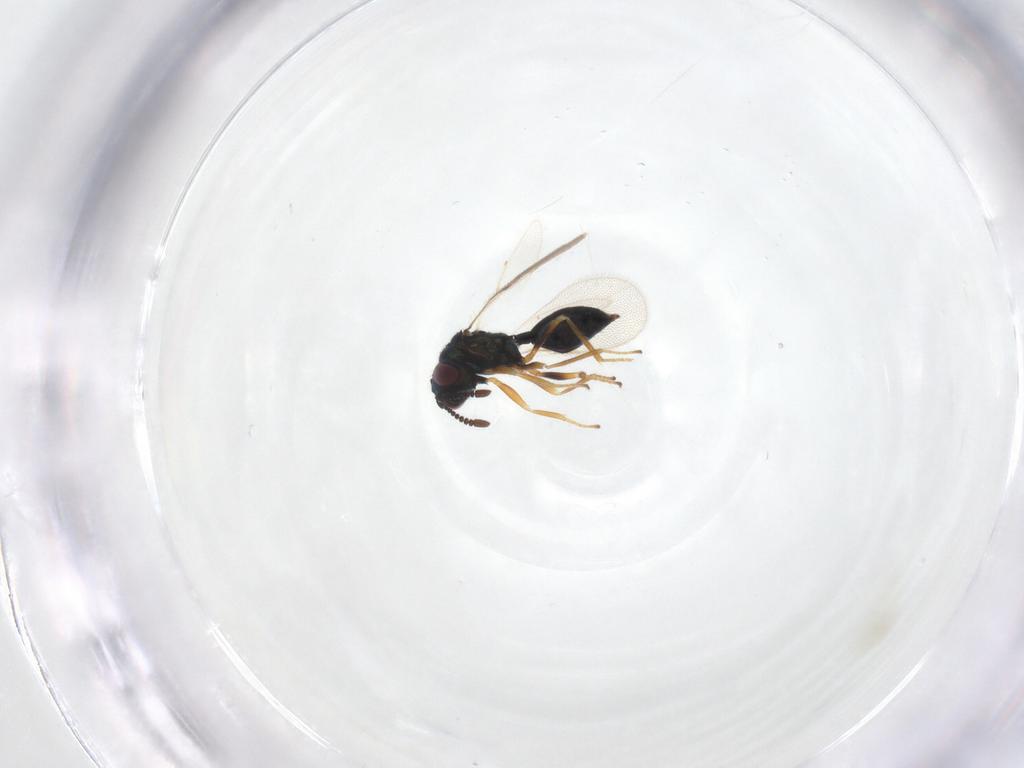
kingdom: Animalia
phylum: Arthropoda
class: Insecta
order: Hymenoptera
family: Chalcidoidea_incertae_sedis
